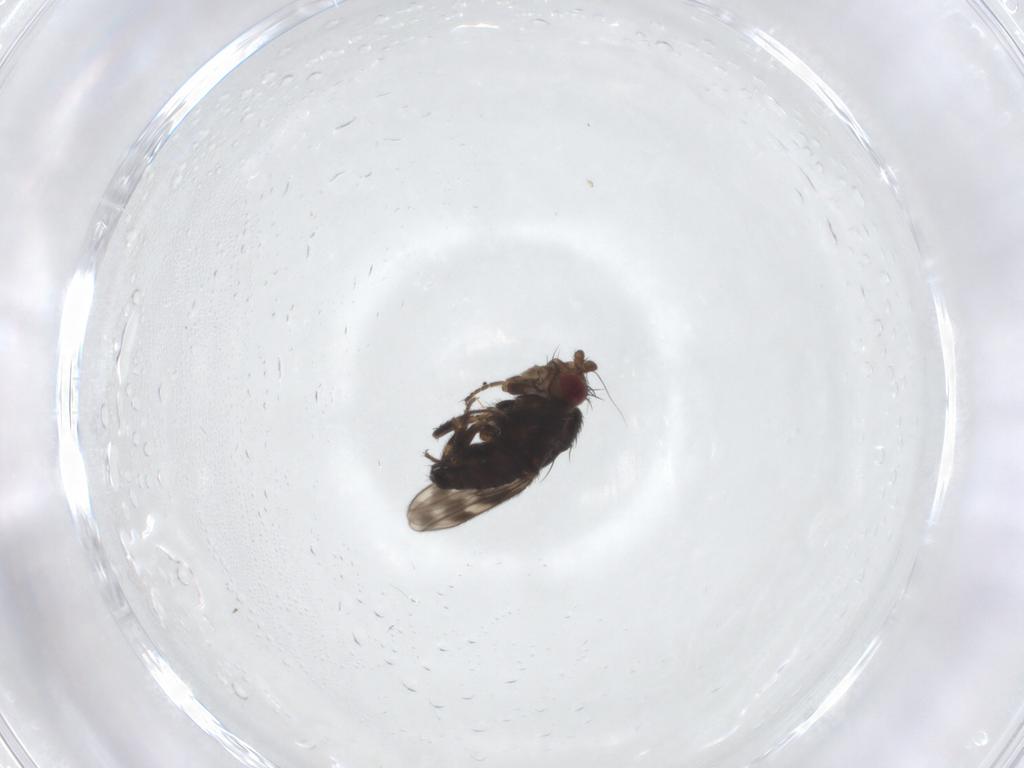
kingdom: Animalia
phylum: Arthropoda
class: Insecta
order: Diptera
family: Sphaeroceridae
